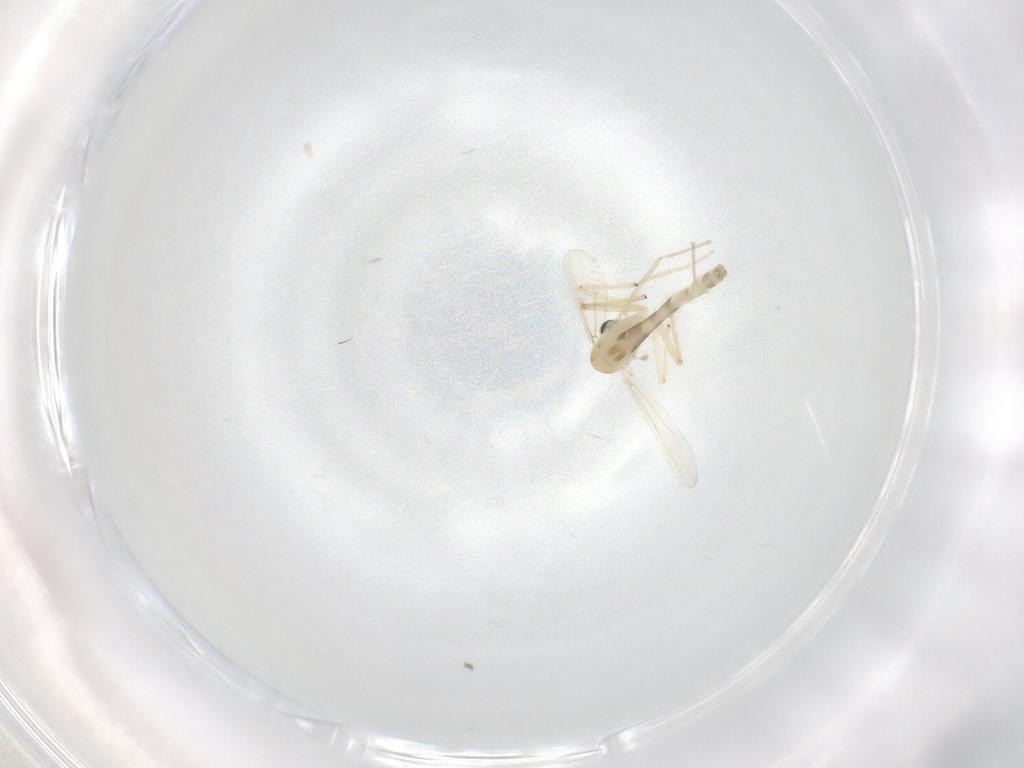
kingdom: Animalia
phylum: Arthropoda
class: Insecta
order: Diptera
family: Chironomidae
